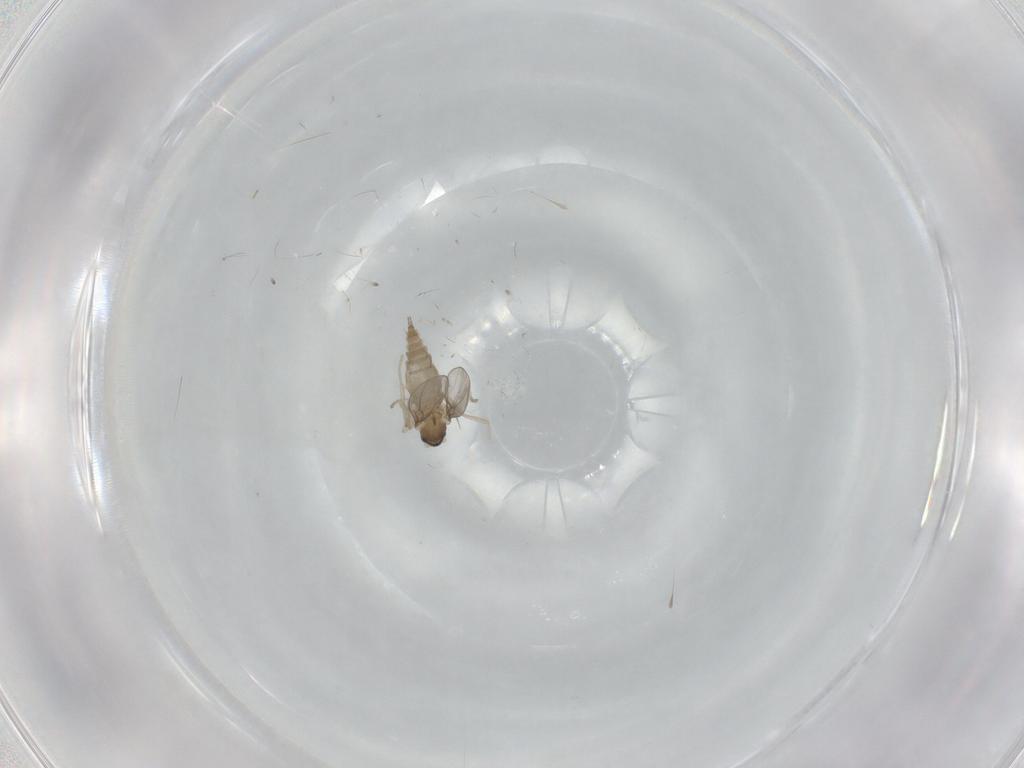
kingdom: Animalia
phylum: Arthropoda
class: Insecta
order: Diptera
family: Cecidomyiidae
